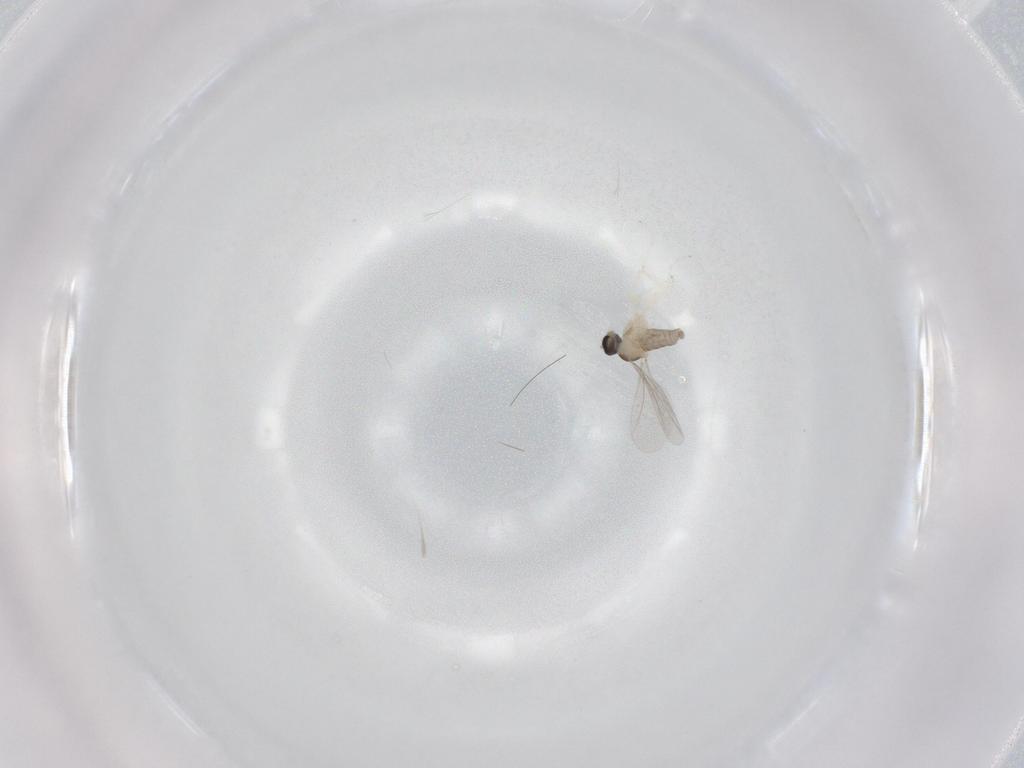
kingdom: Animalia
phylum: Arthropoda
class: Insecta
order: Diptera
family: Cecidomyiidae
